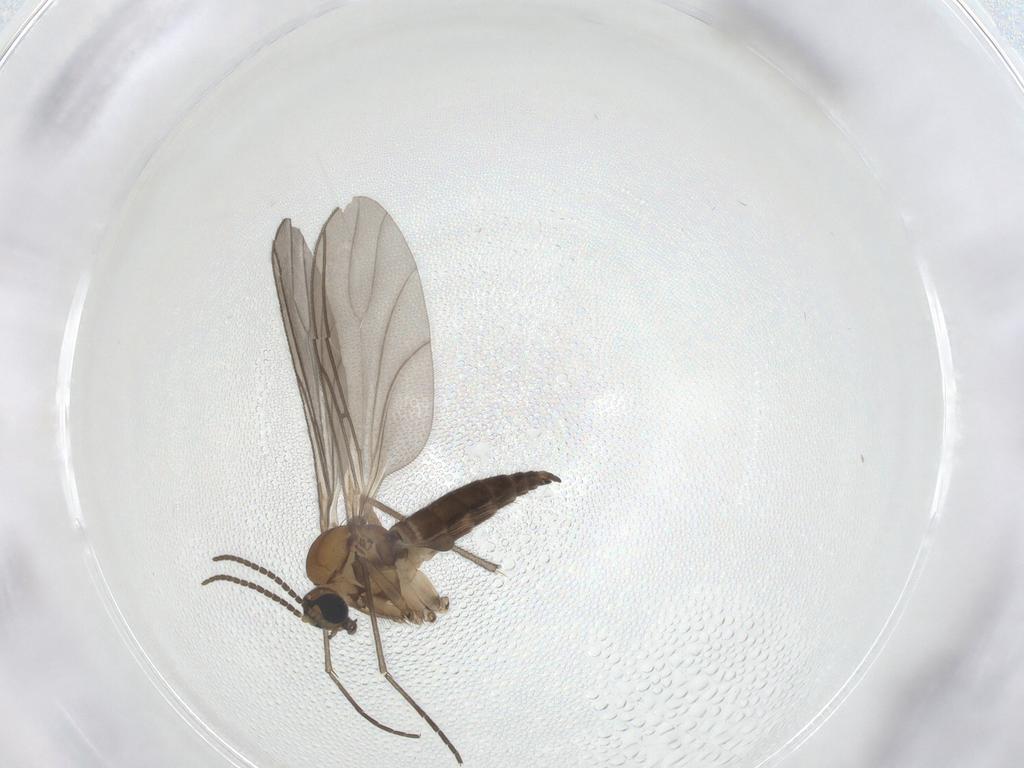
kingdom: Animalia
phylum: Arthropoda
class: Insecta
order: Diptera
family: Sciaridae
